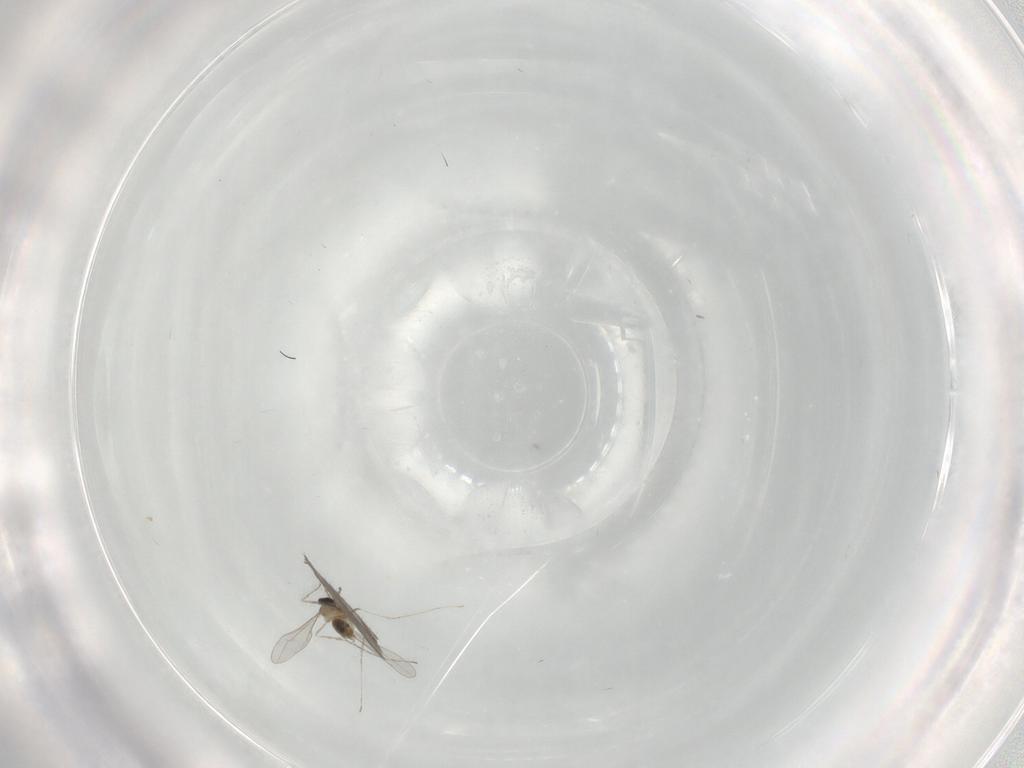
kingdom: Animalia
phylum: Arthropoda
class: Insecta
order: Diptera
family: Cecidomyiidae
